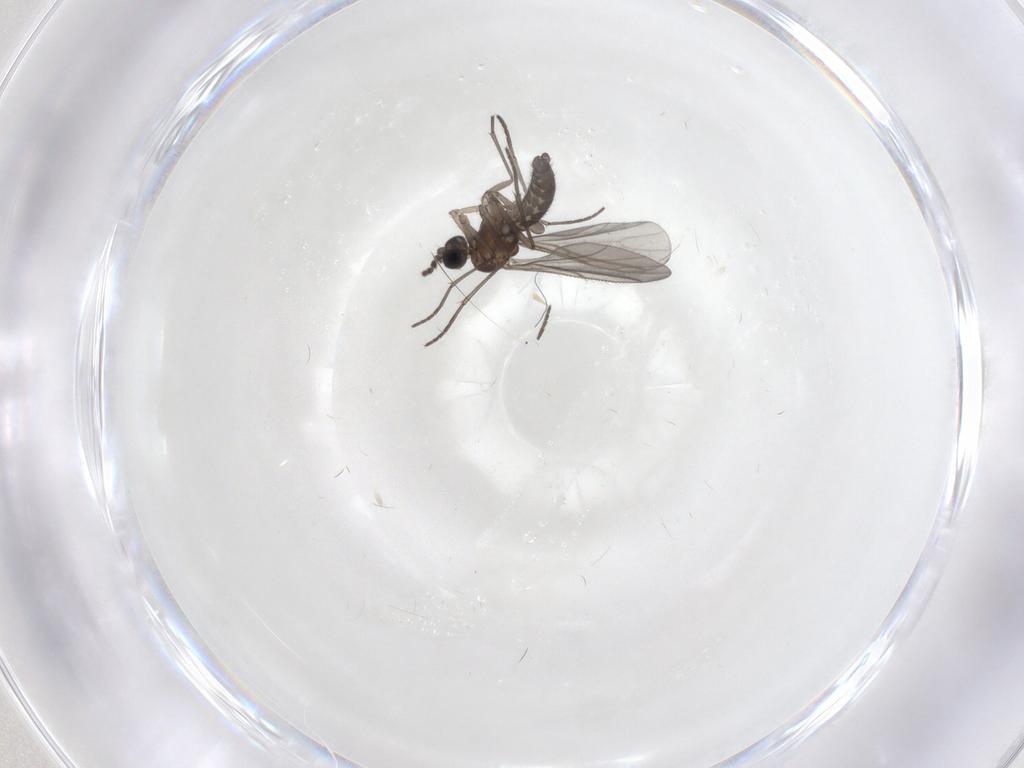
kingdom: Animalia
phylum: Arthropoda
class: Insecta
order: Diptera
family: Sciaridae
